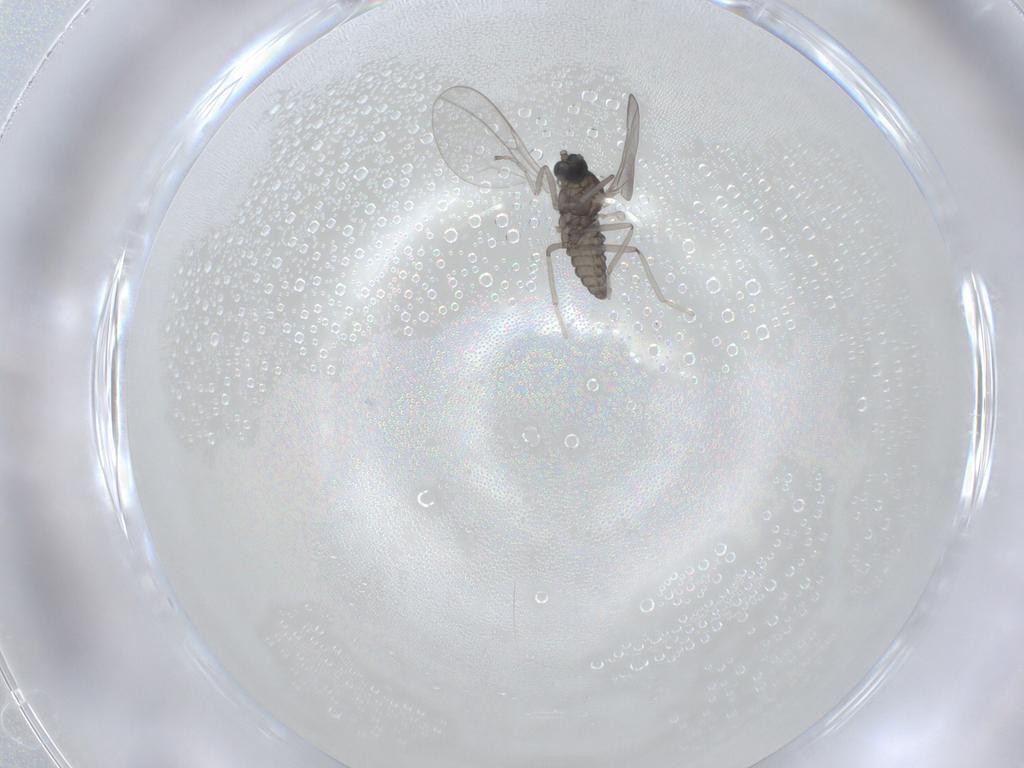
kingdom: Animalia
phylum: Arthropoda
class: Insecta
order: Diptera
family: Cecidomyiidae
